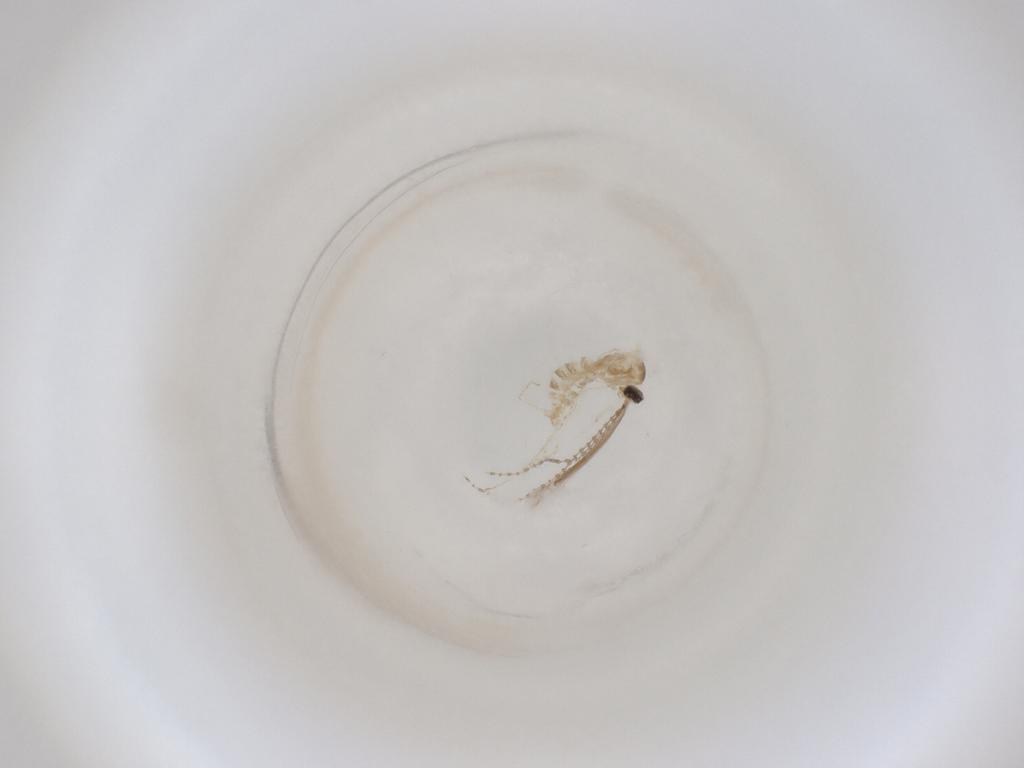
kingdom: Animalia
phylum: Arthropoda
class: Insecta
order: Diptera
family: Cecidomyiidae
